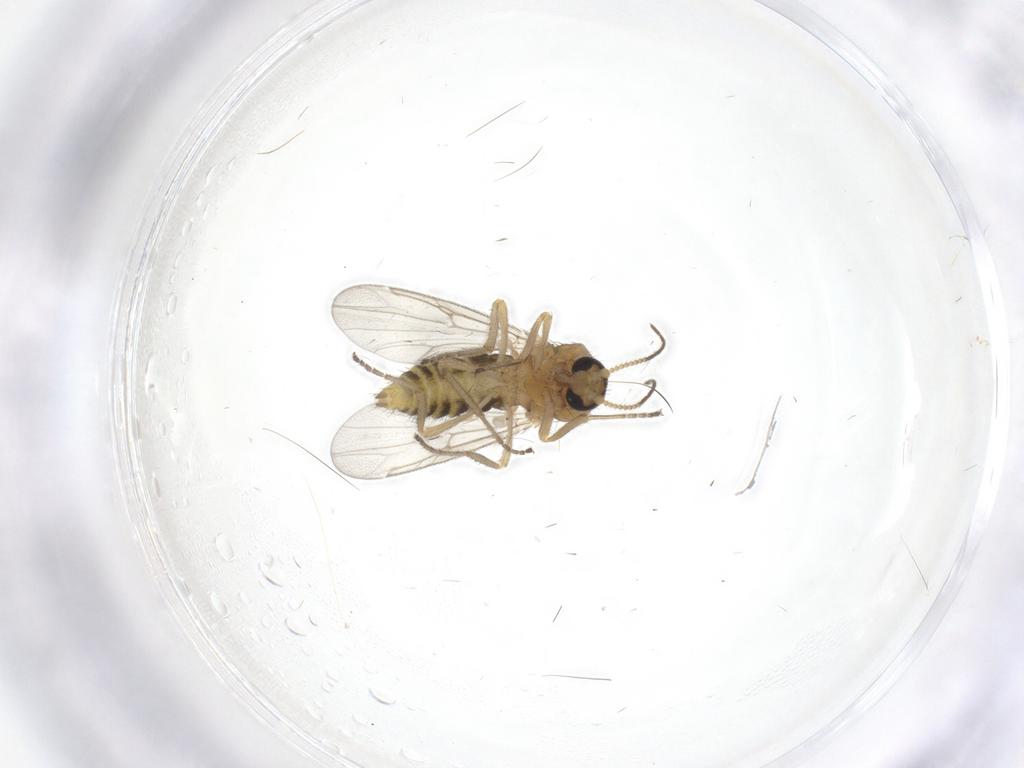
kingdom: Animalia
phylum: Arthropoda
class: Insecta
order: Diptera
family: Ceratopogonidae
